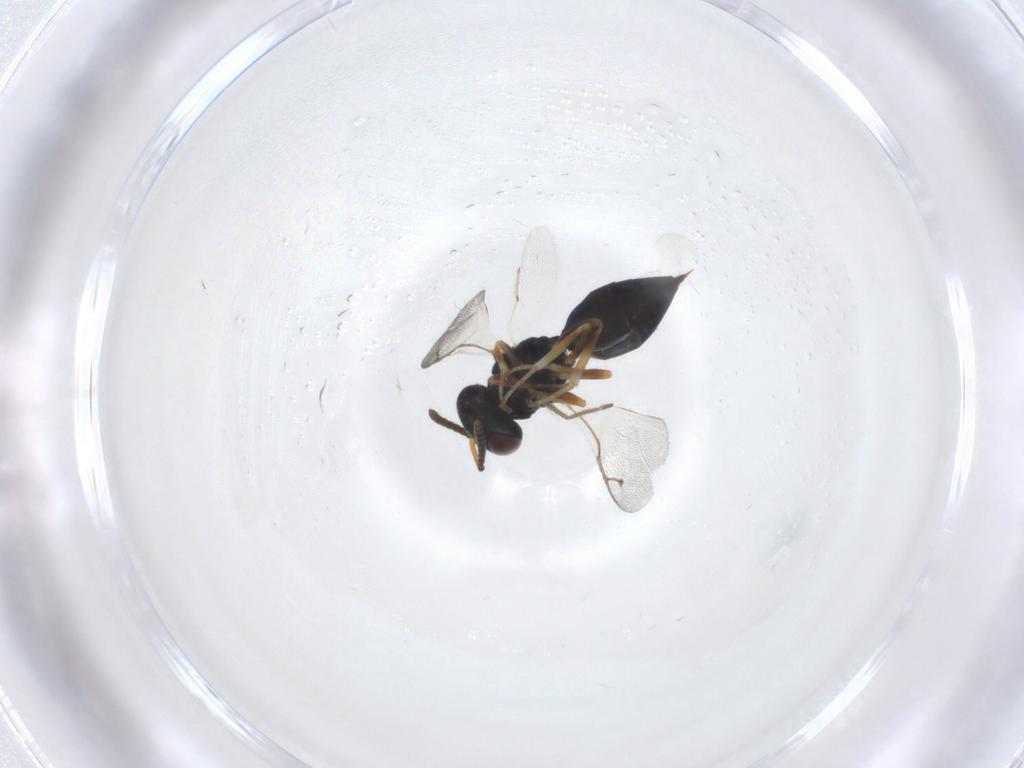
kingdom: Animalia
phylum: Arthropoda
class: Insecta
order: Hymenoptera
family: Pteromalidae
